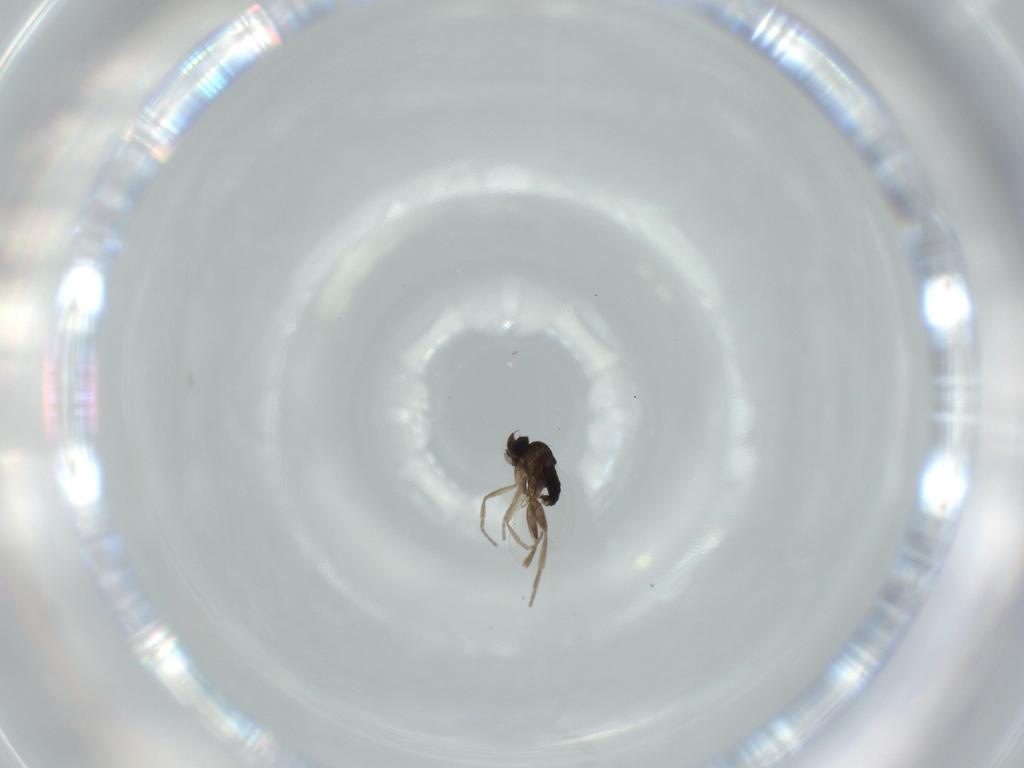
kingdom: Animalia
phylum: Arthropoda
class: Insecta
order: Diptera
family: Phoridae
